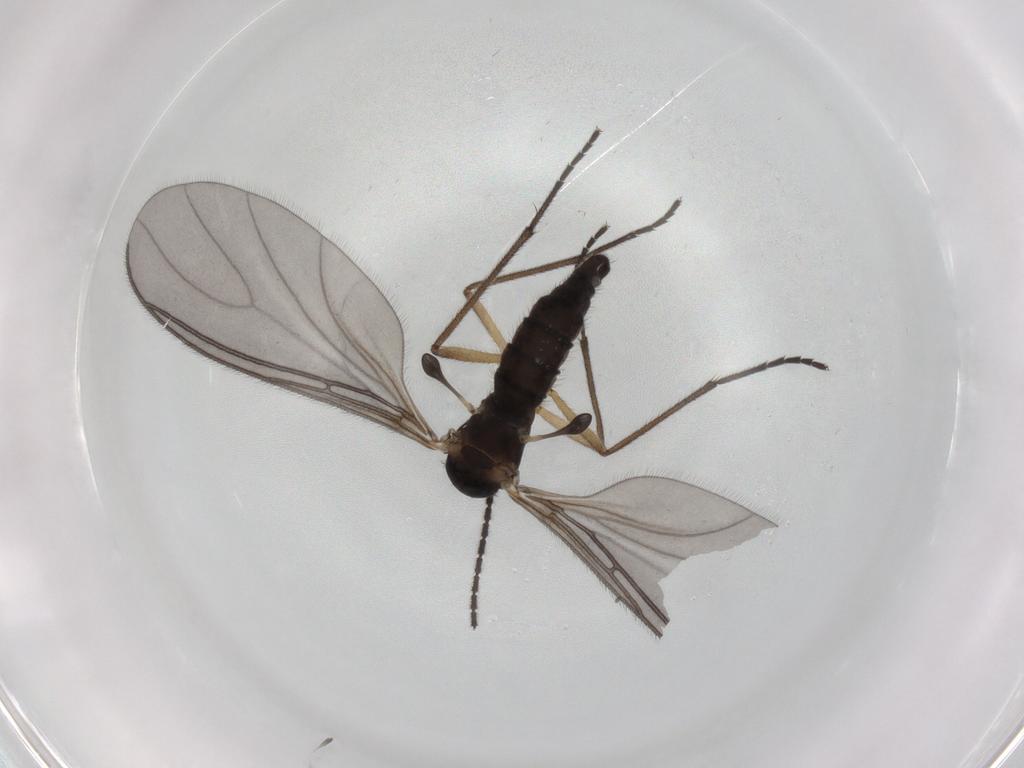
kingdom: Animalia
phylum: Arthropoda
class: Insecta
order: Diptera
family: Sciaridae
